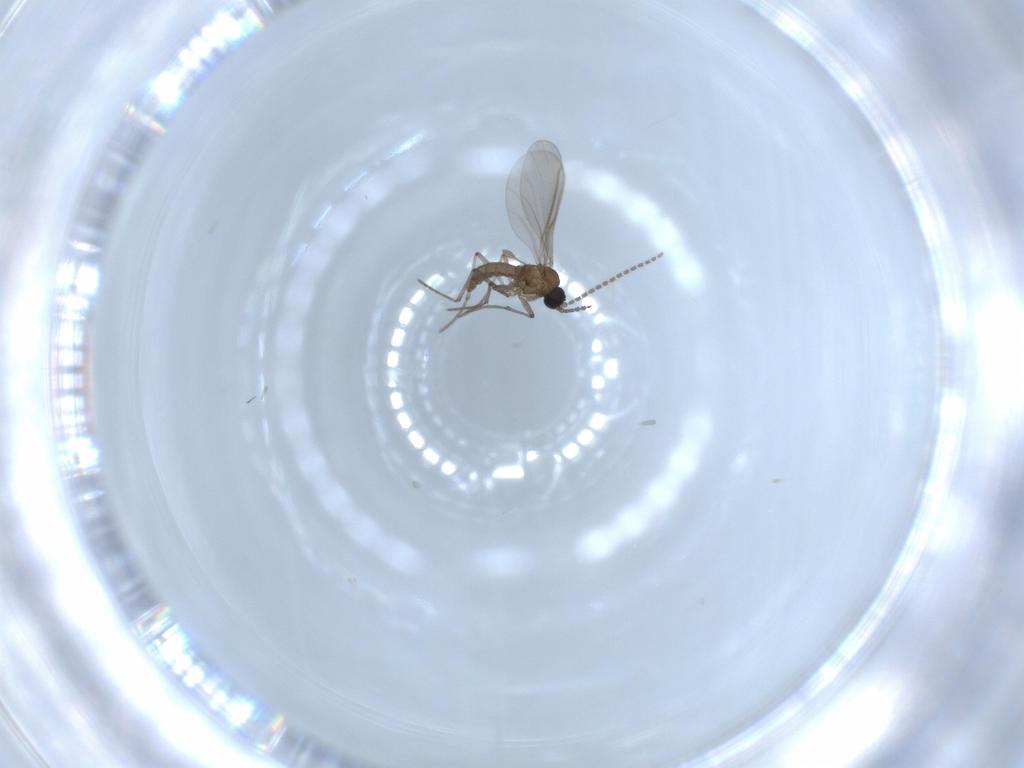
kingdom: Animalia
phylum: Arthropoda
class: Insecta
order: Diptera
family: Sciaridae
